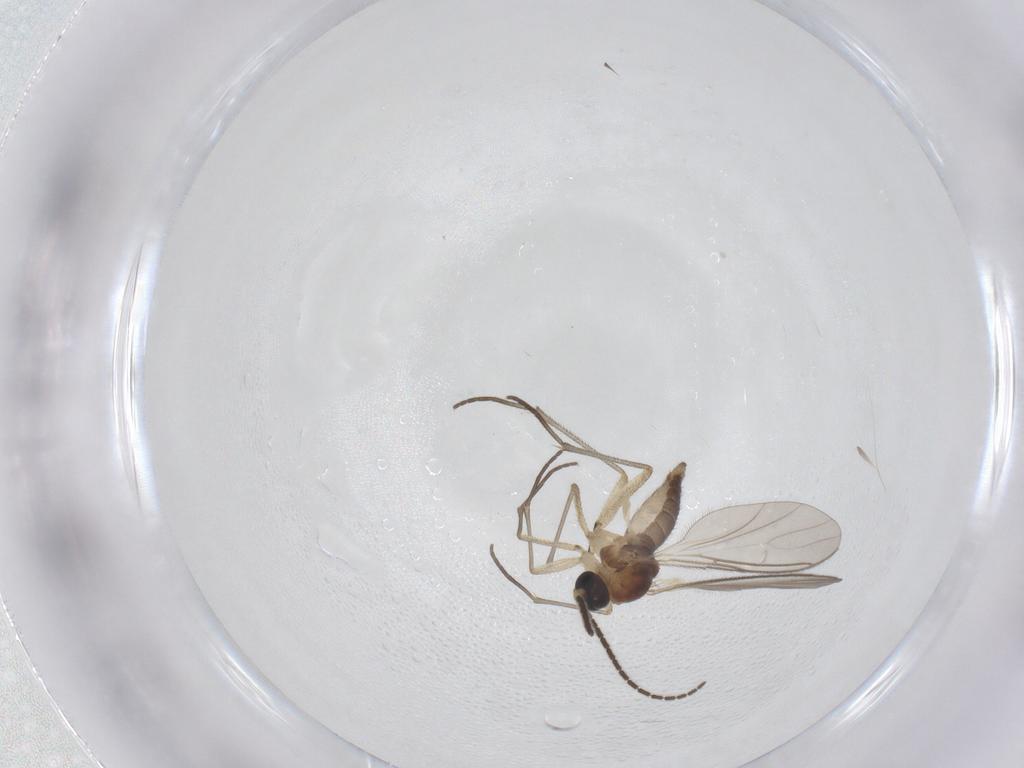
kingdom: Animalia
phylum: Arthropoda
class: Insecta
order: Diptera
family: Sciaridae
